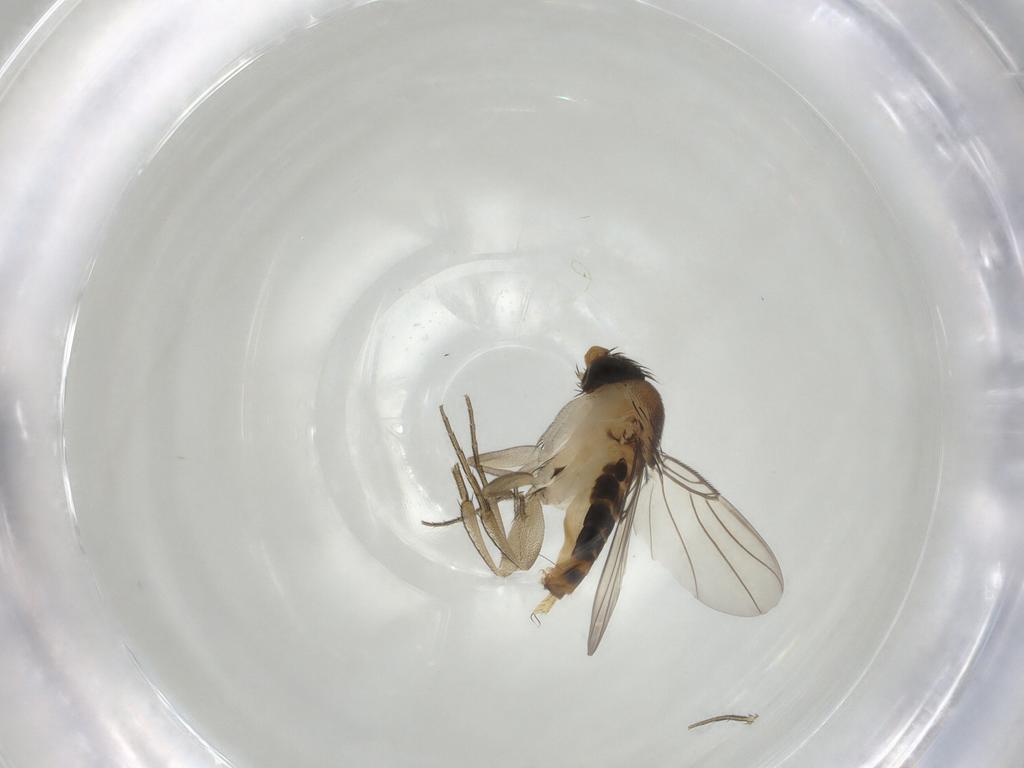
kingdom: Animalia
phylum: Arthropoda
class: Insecta
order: Diptera
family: Phoridae
